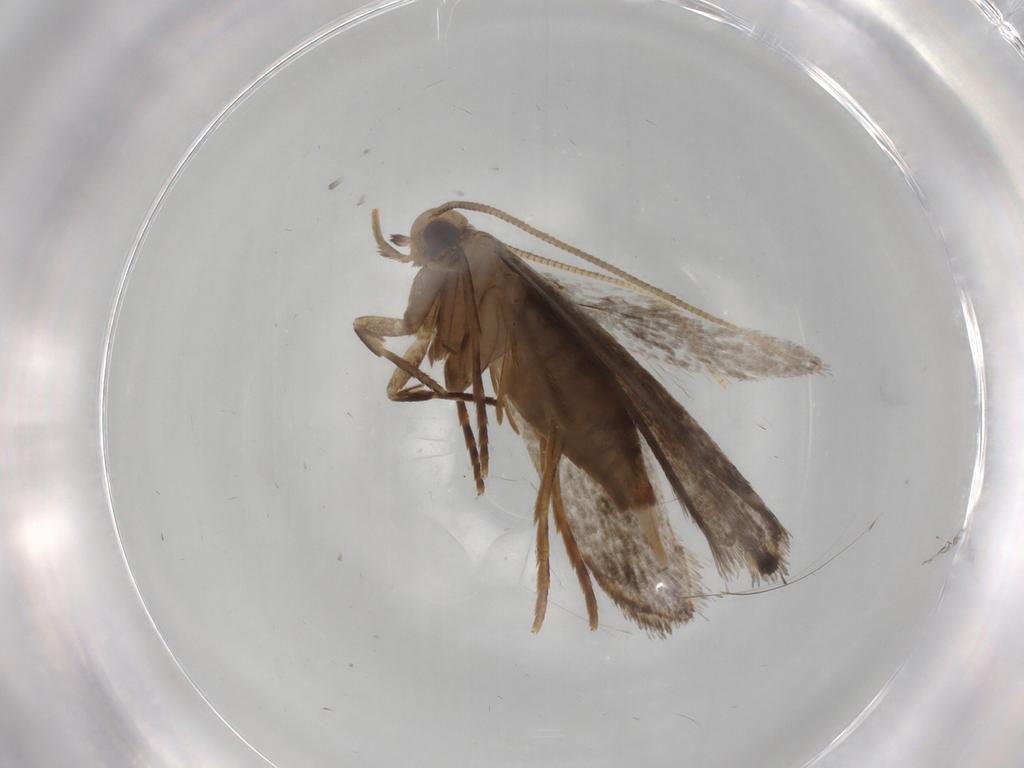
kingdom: Animalia
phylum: Arthropoda
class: Insecta
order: Lepidoptera
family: Tineidae
